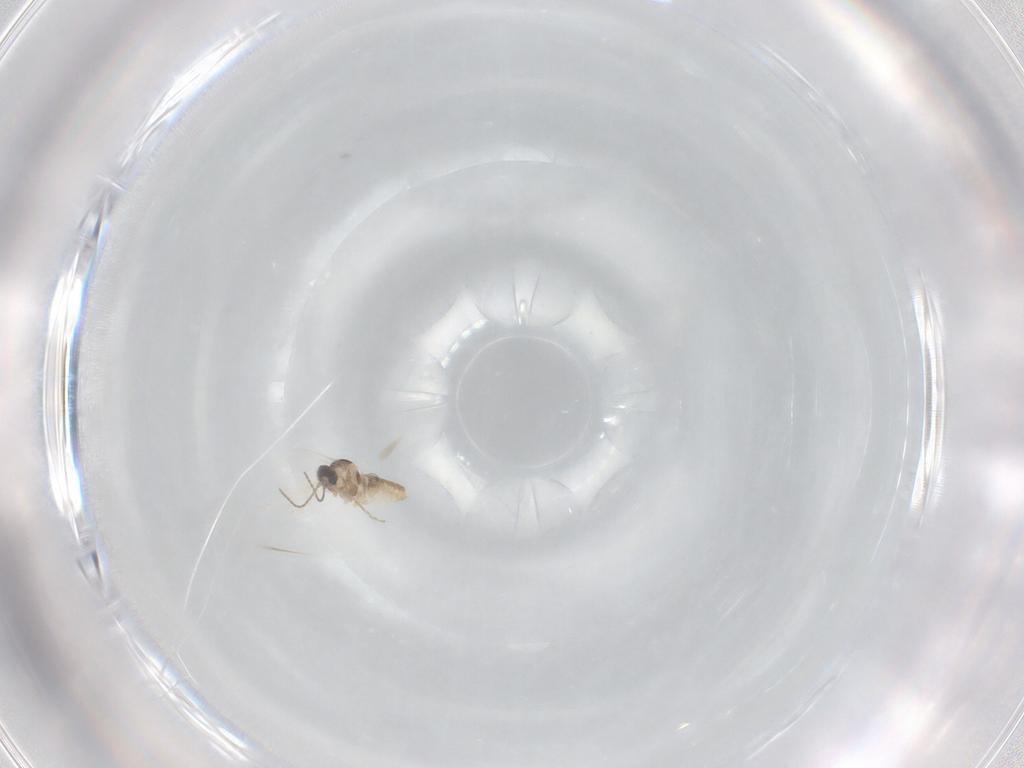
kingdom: Animalia
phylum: Arthropoda
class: Insecta
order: Diptera
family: Cecidomyiidae
